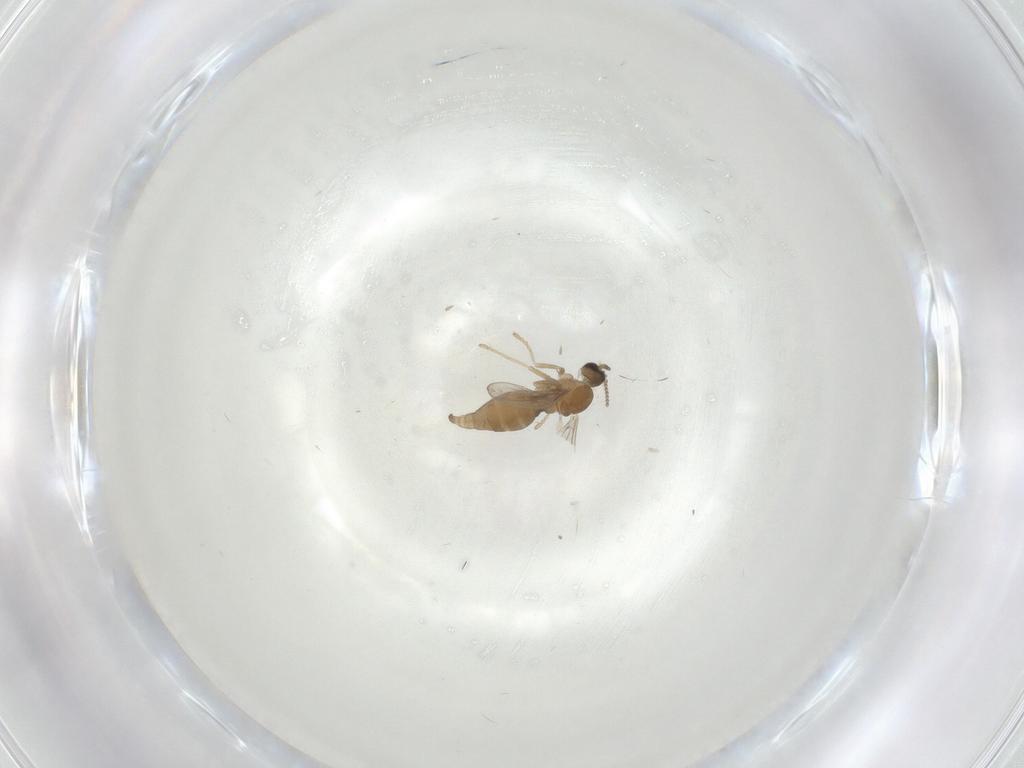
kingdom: Animalia
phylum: Arthropoda
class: Insecta
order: Diptera
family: Cecidomyiidae
